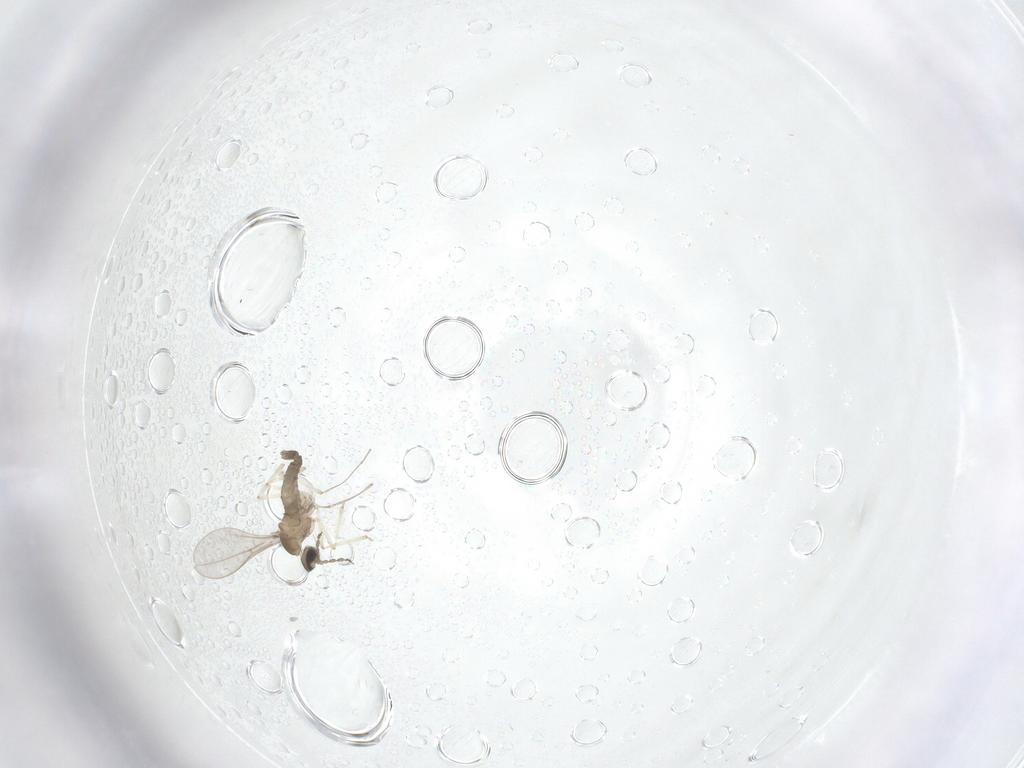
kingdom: Animalia
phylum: Arthropoda
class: Insecta
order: Diptera
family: Cecidomyiidae
